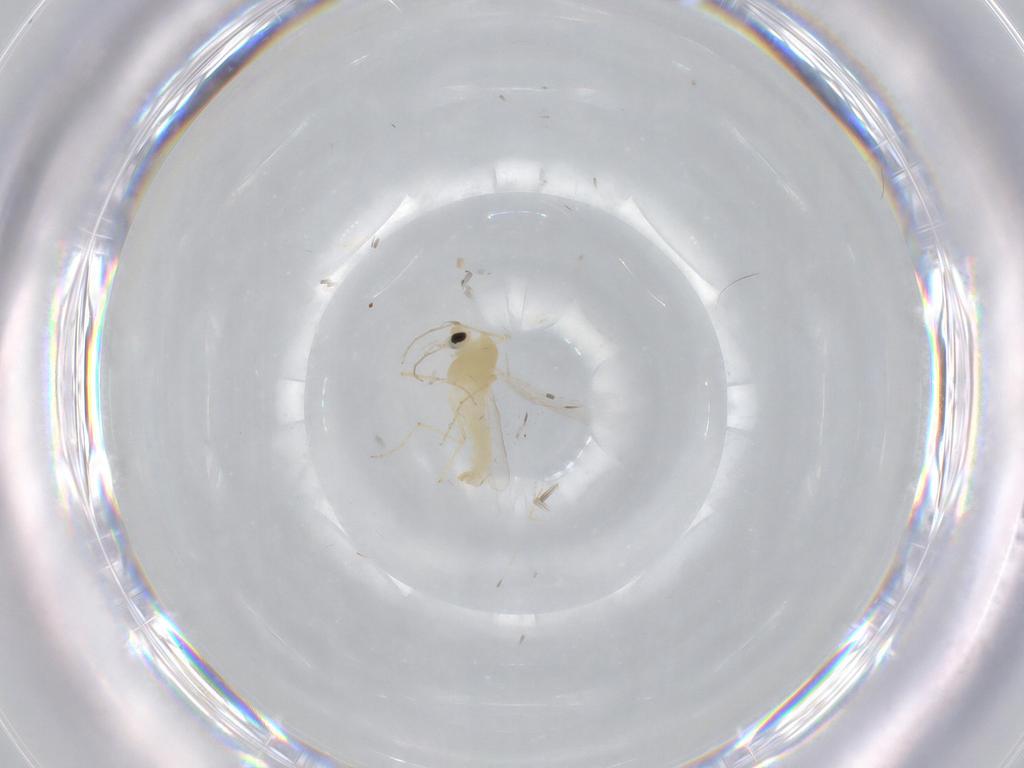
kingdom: Animalia
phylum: Arthropoda
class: Insecta
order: Diptera
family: Chironomidae
